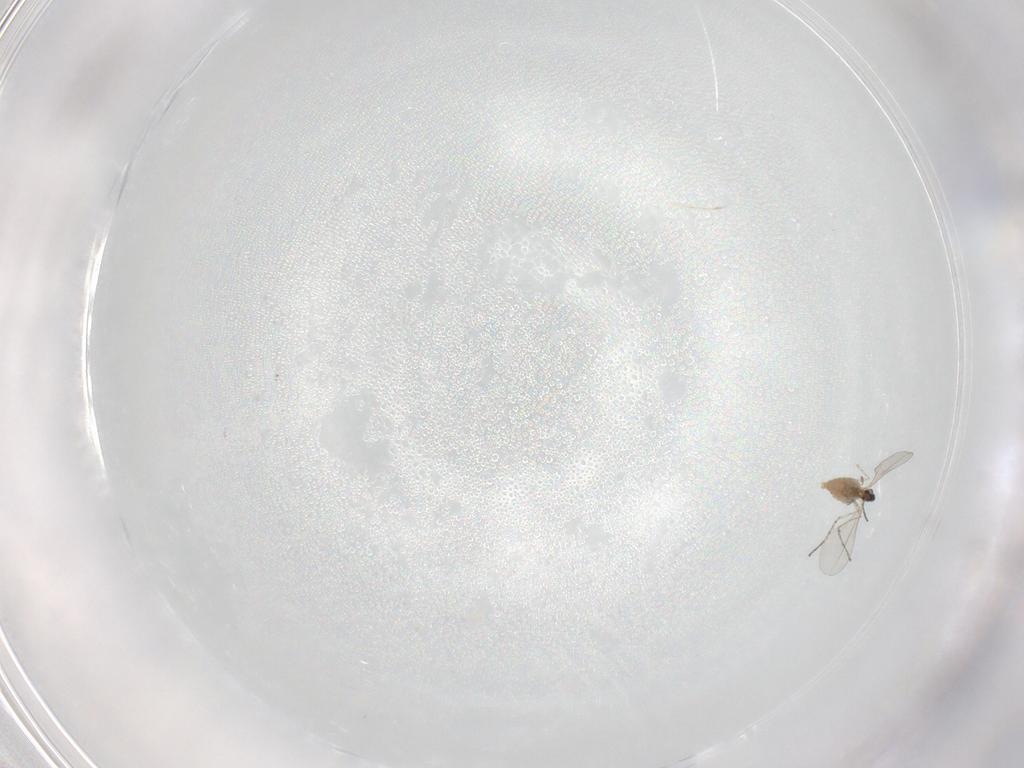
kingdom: Animalia
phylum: Arthropoda
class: Insecta
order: Diptera
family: Cecidomyiidae
